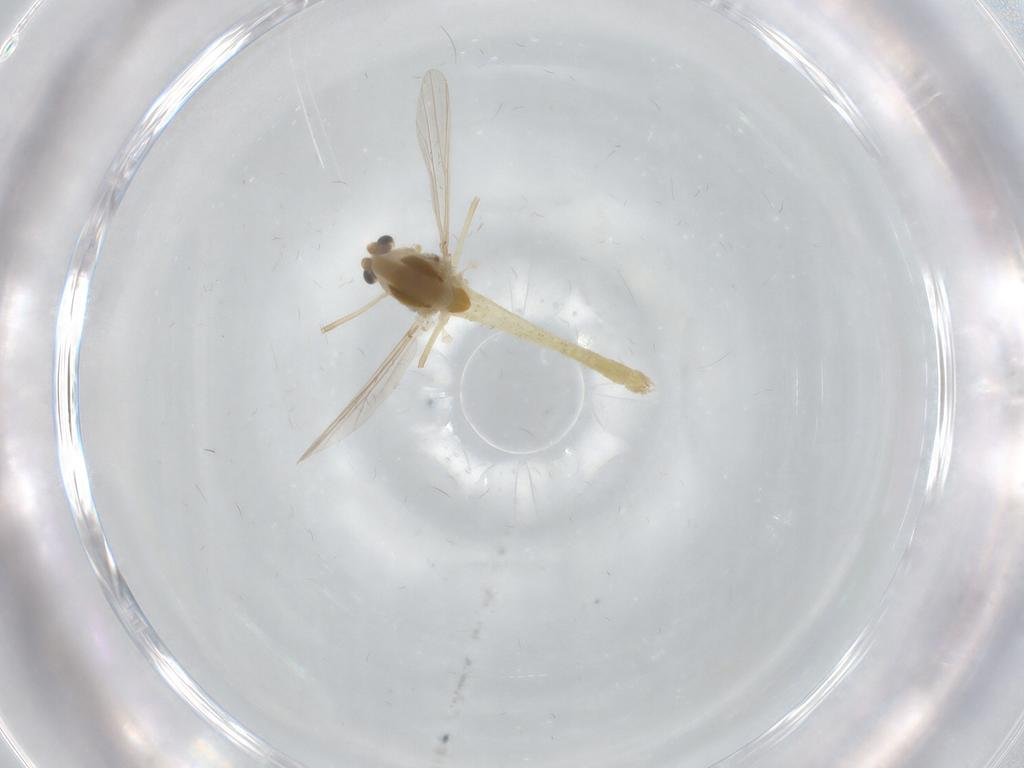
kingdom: Animalia
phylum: Arthropoda
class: Insecta
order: Diptera
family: Chironomidae
